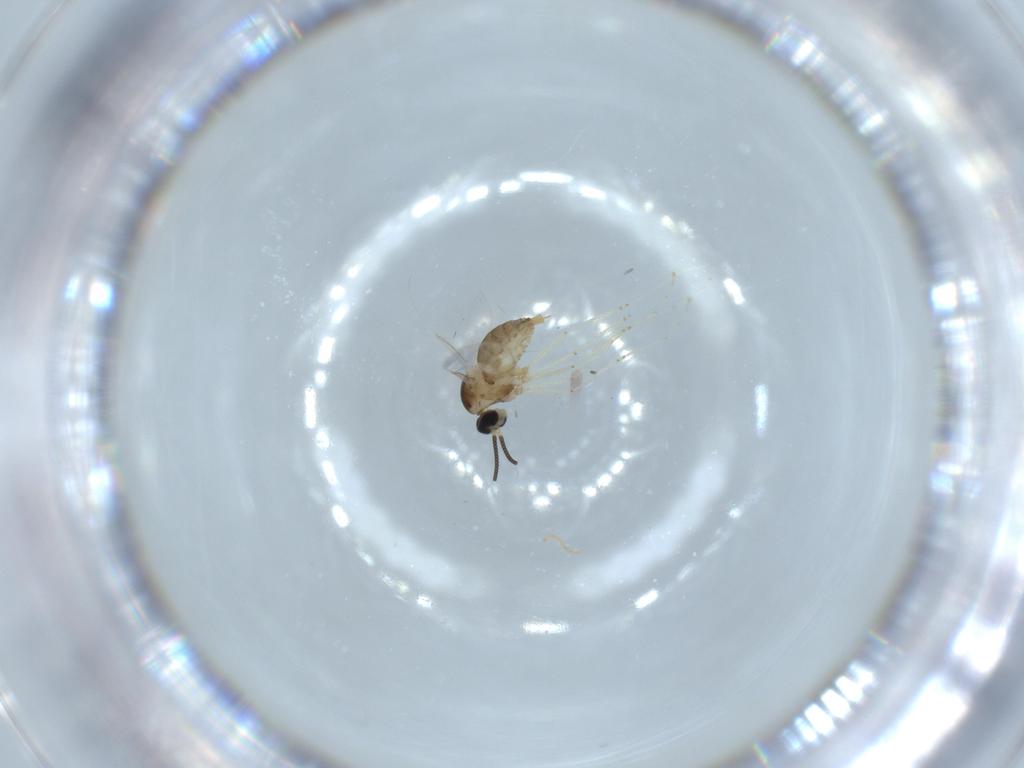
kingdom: Animalia
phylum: Arthropoda
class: Insecta
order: Diptera
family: Cecidomyiidae
